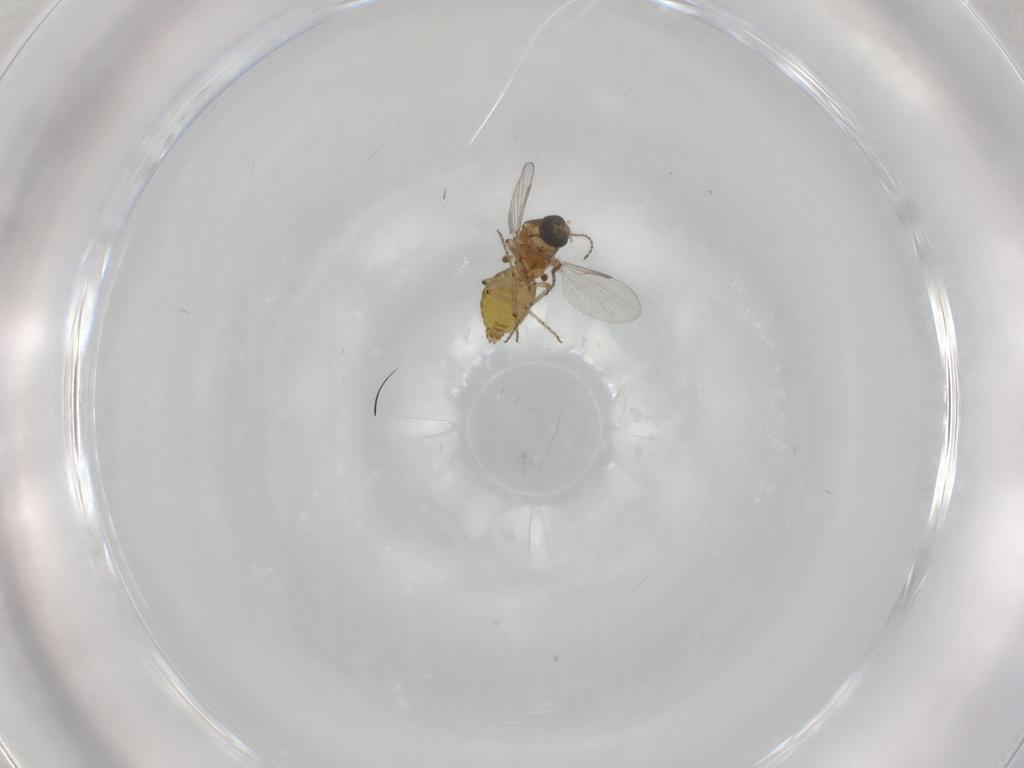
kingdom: Animalia
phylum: Arthropoda
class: Insecta
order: Diptera
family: Ceratopogonidae
